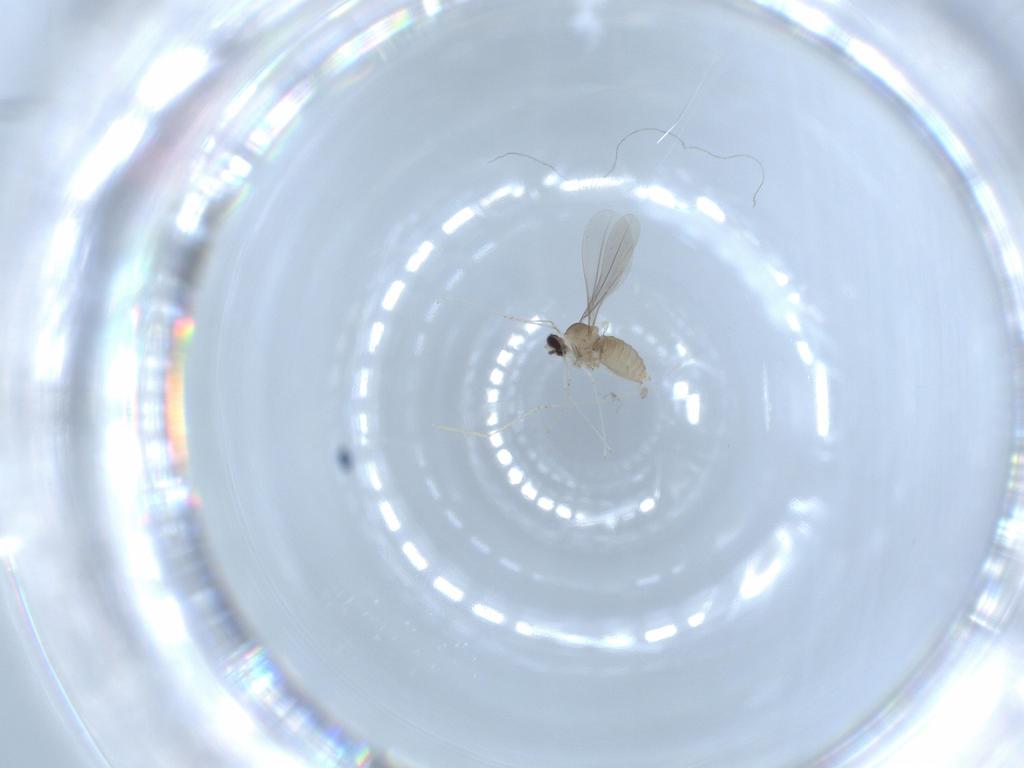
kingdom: Animalia
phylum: Arthropoda
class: Insecta
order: Diptera
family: Cecidomyiidae
